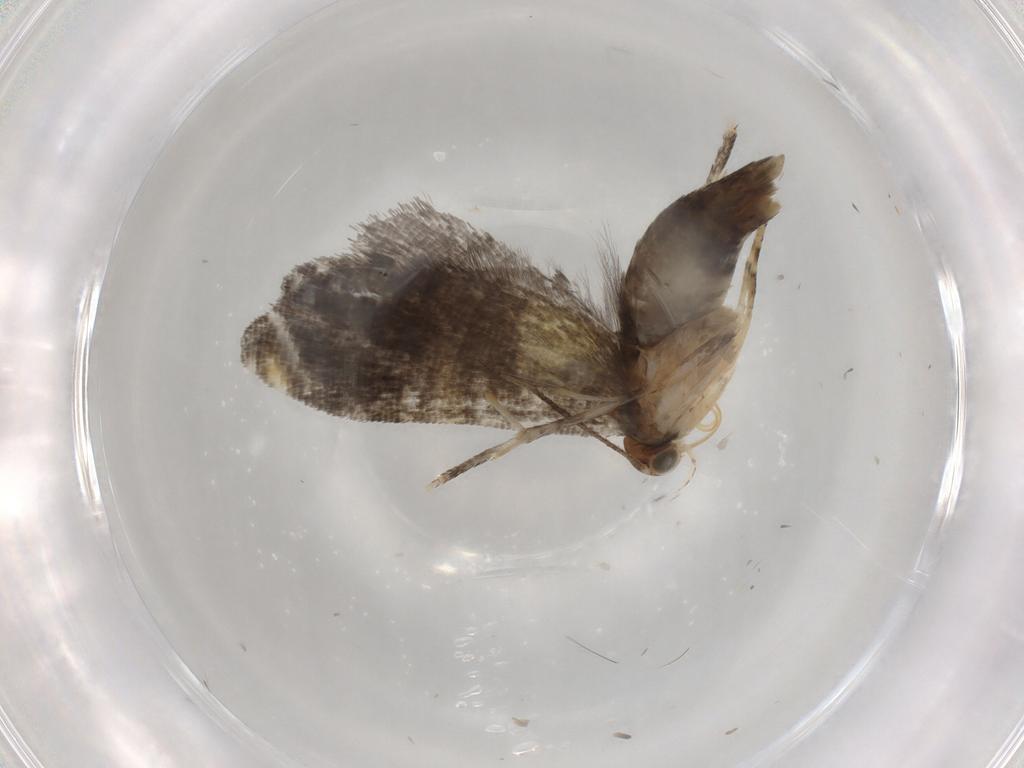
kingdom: Animalia
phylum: Arthropoda
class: Insecta
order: Lepidoptera
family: Glyphipterigidae
